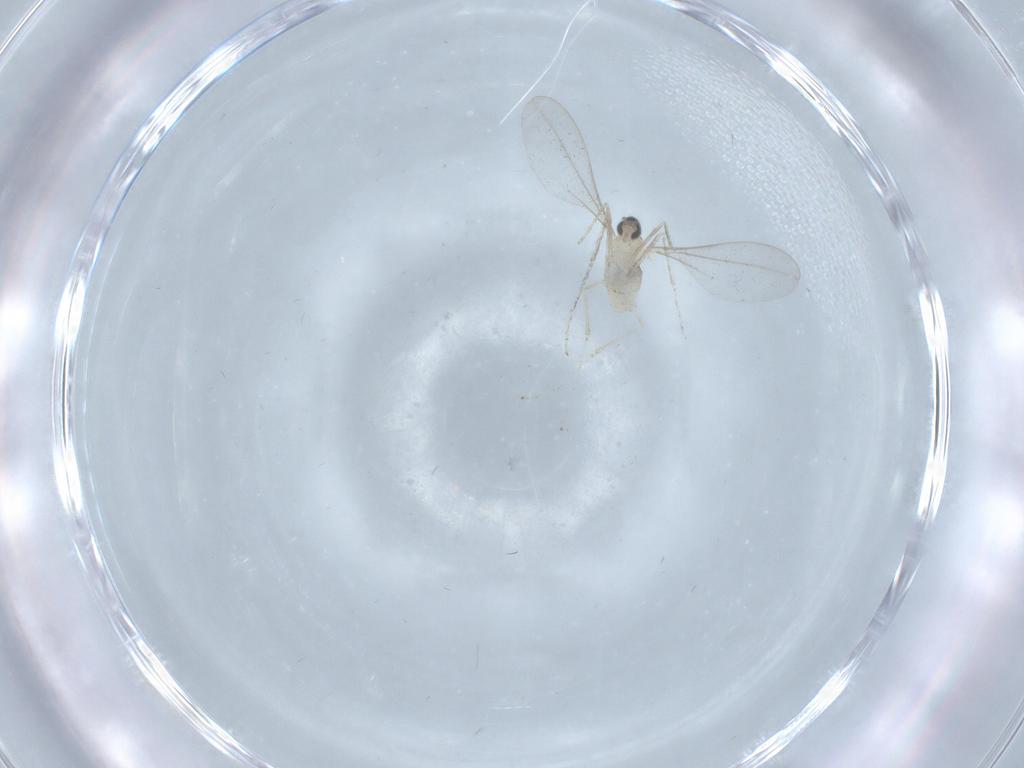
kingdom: Animalia
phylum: Arthropoda
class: Insecta
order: Diptera
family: Cecidomyiidae
